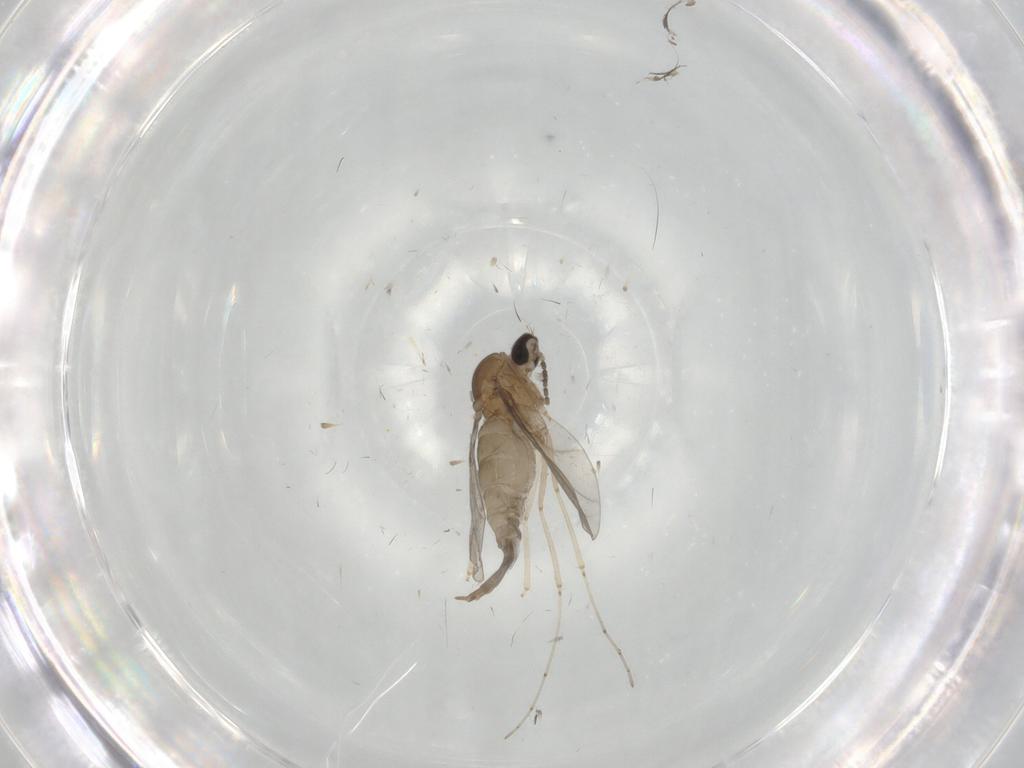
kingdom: Animalia
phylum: Arthropoda
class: Insecta
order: Diptera
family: Cecidomyiidae
